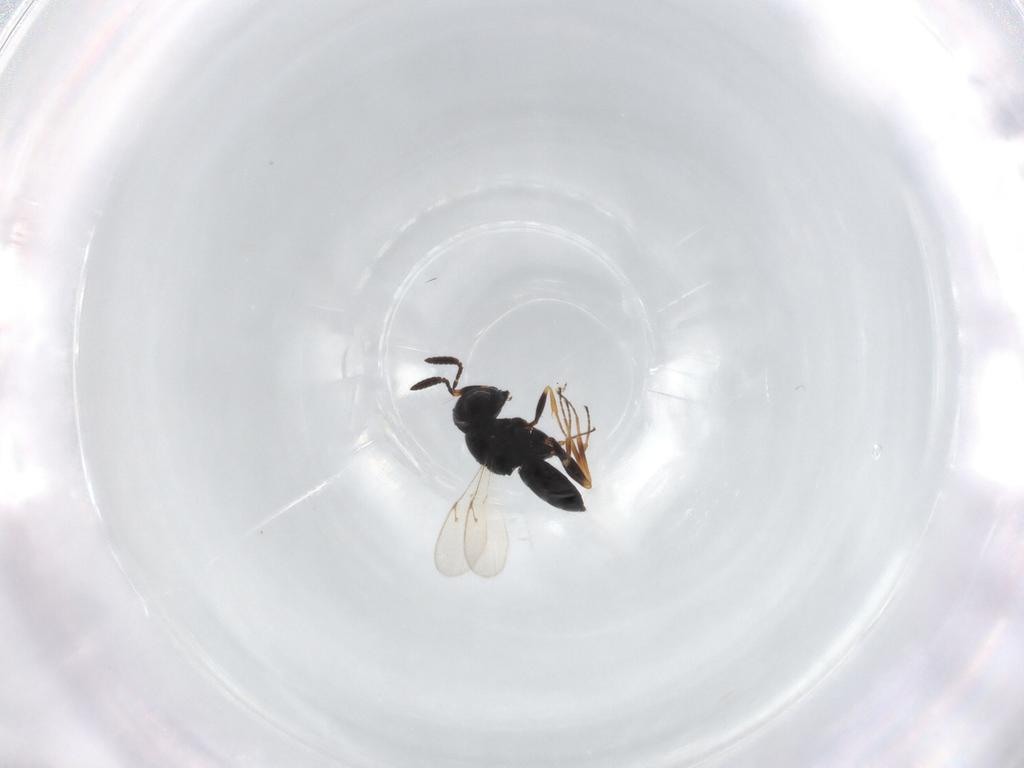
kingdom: Animalia
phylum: Arthropoda
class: Insecta
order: Hymenoptera
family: Scelionidae
